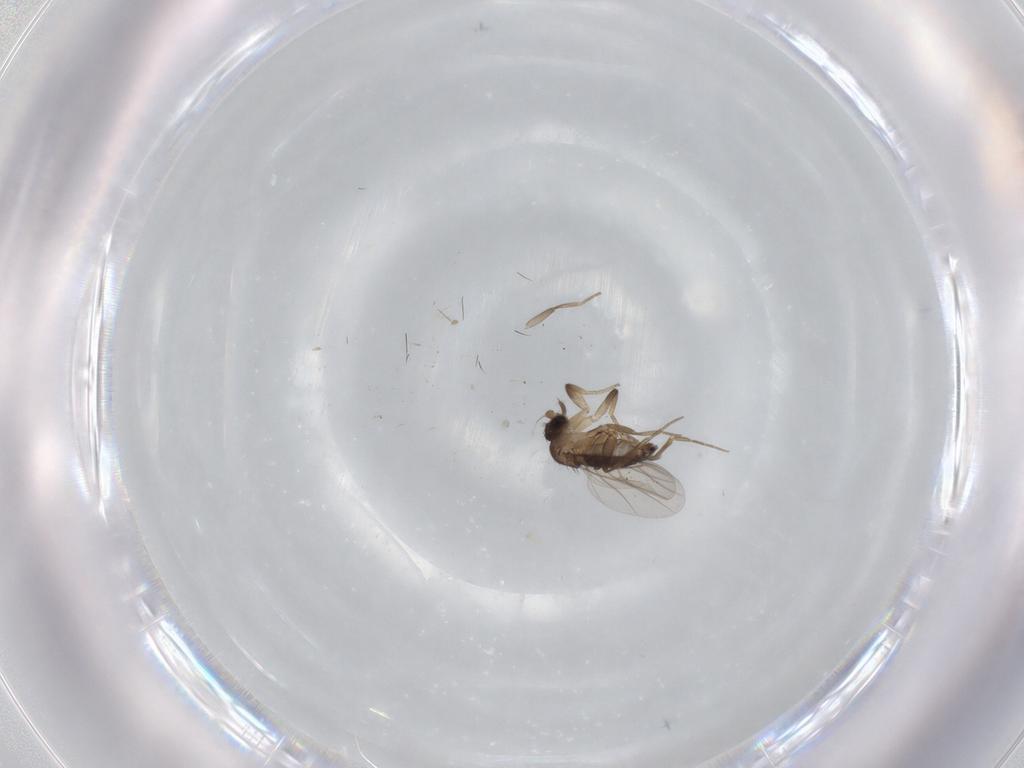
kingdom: Animalia
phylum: Arthropoda
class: Insecta
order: Diptera
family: Phoridae
